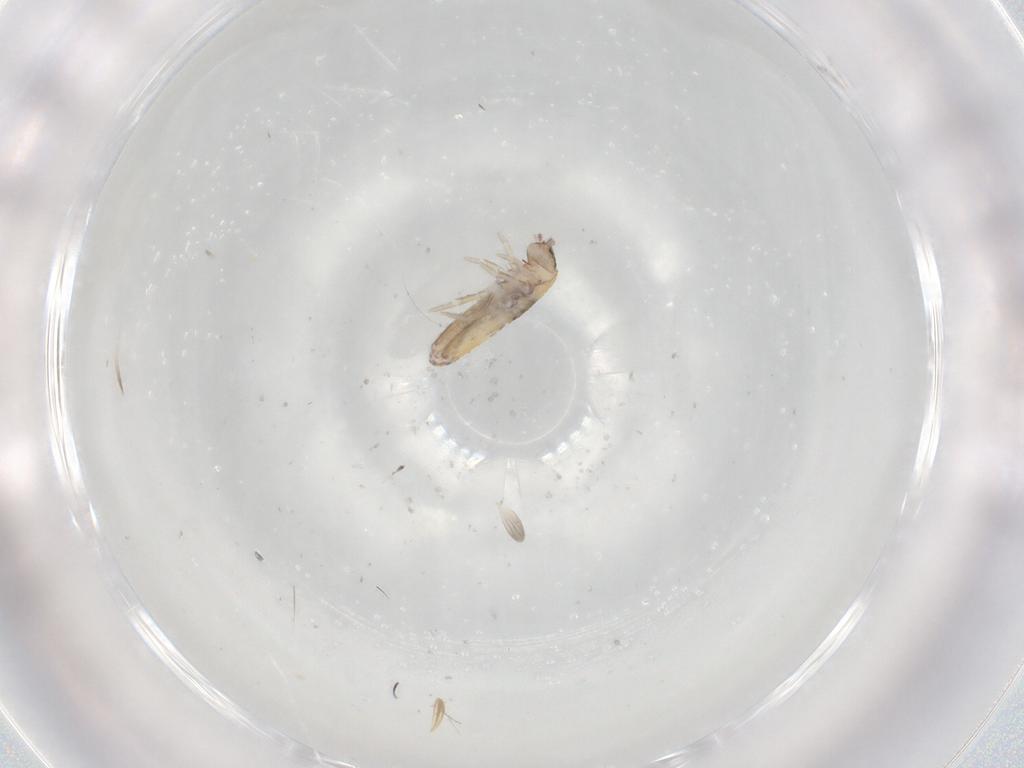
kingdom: Animalia
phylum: Arthropoda
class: Collembola
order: Entomobryomorpha
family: Entomobryidae
